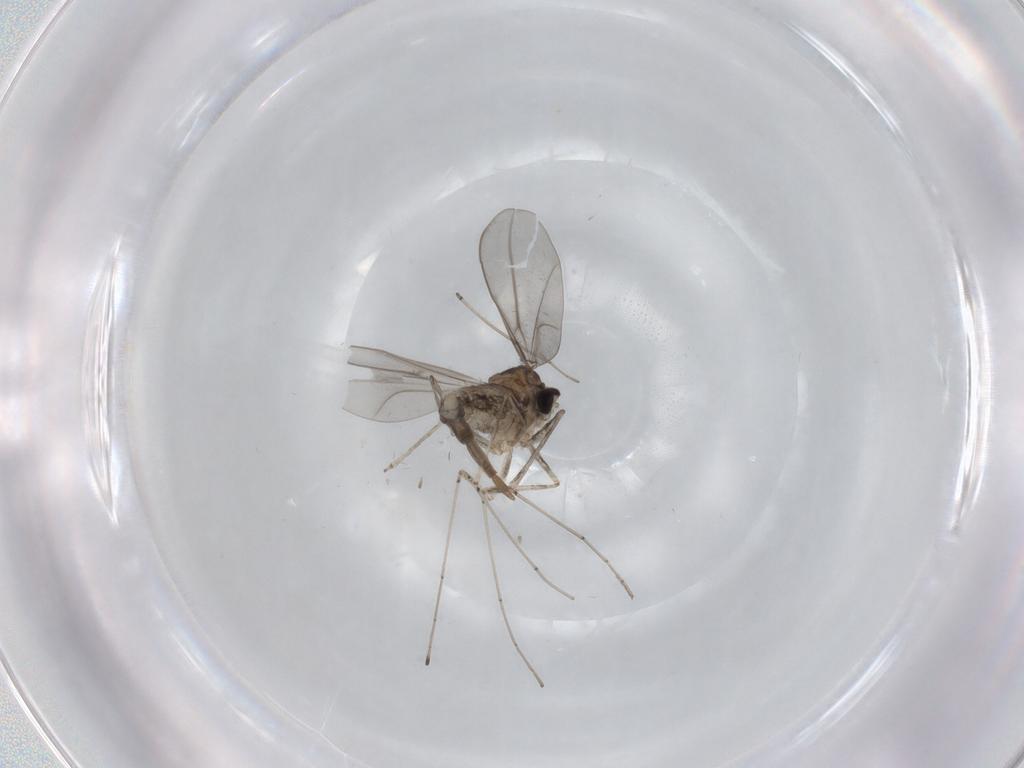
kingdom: Animalia
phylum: Arthropoda
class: Insecta
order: Diptera
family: Cecidomyiidae
